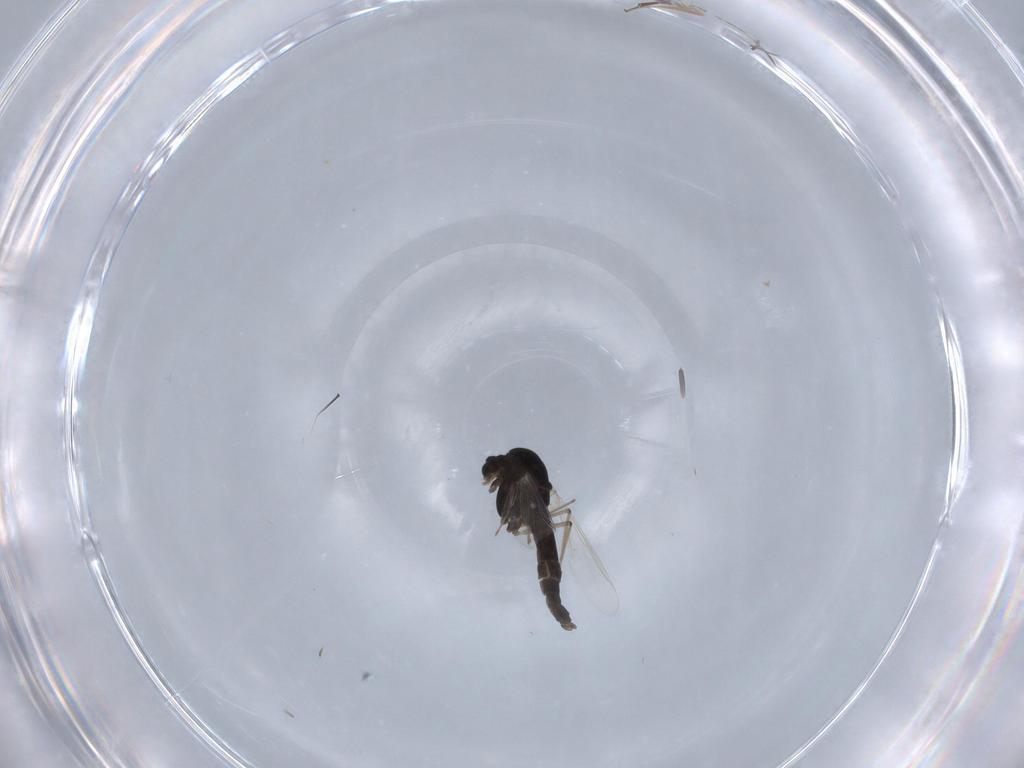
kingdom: Animalia
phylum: Arthropoda
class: Insecta
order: Diptera
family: Chironomidae
